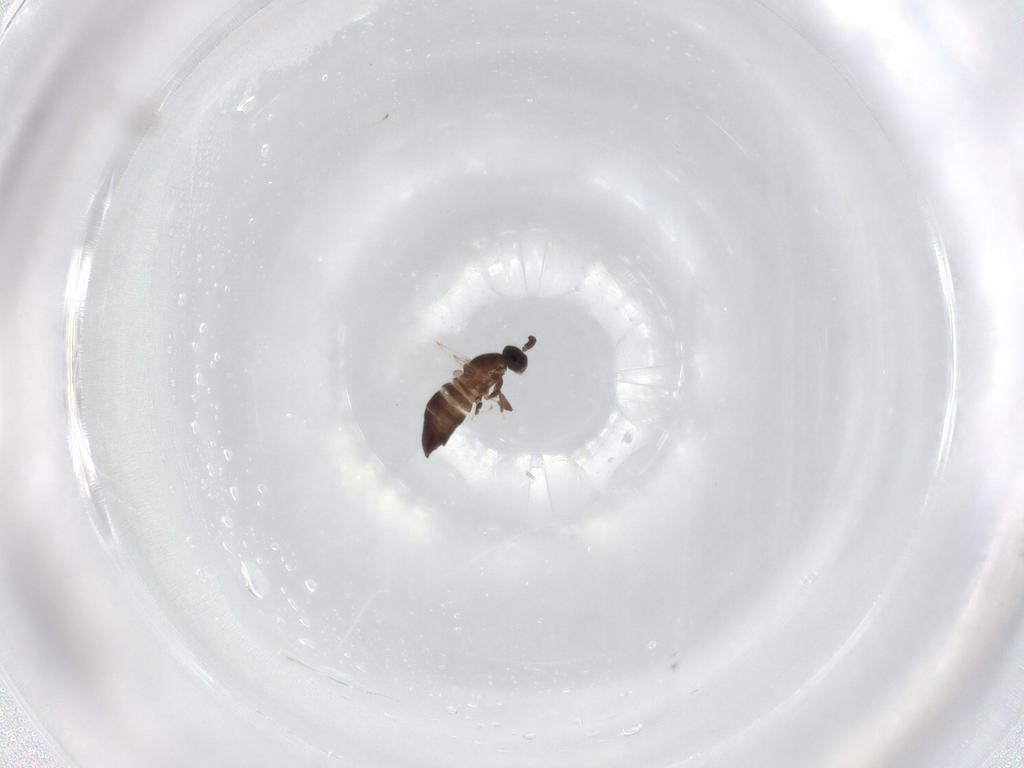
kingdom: Animalia
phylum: Arthropoda
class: Insecta
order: Diptera
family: Scatopsidae
